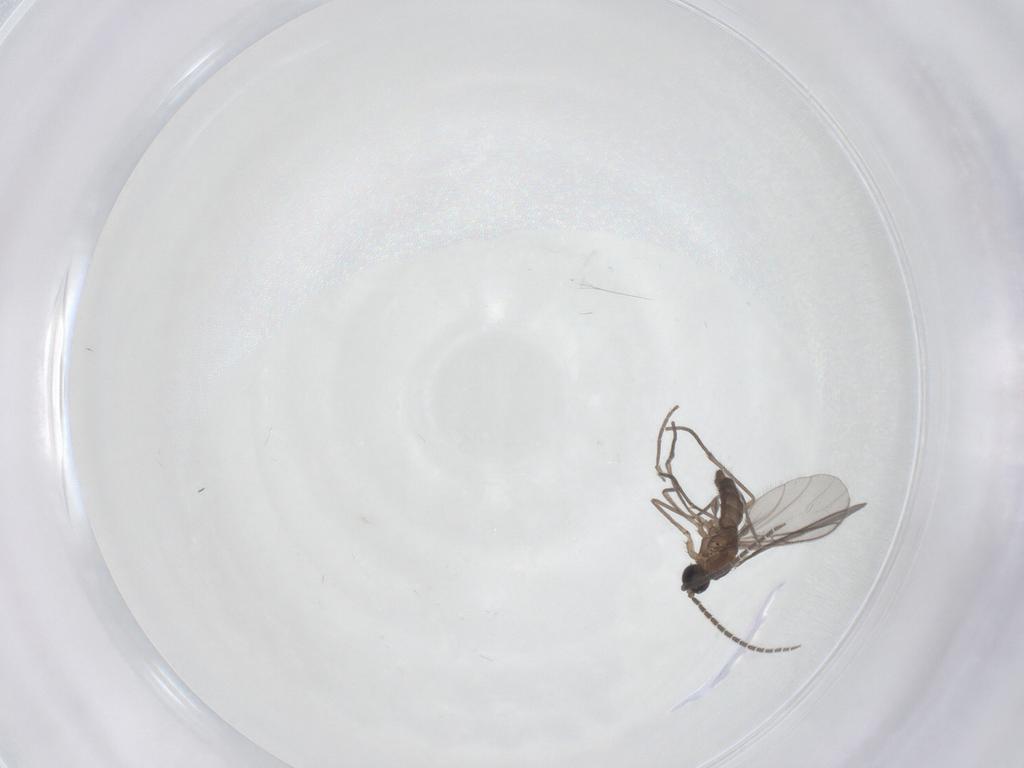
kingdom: Animalia
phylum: Arthropoda
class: Insecta
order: Diptera
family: Sciaridae
